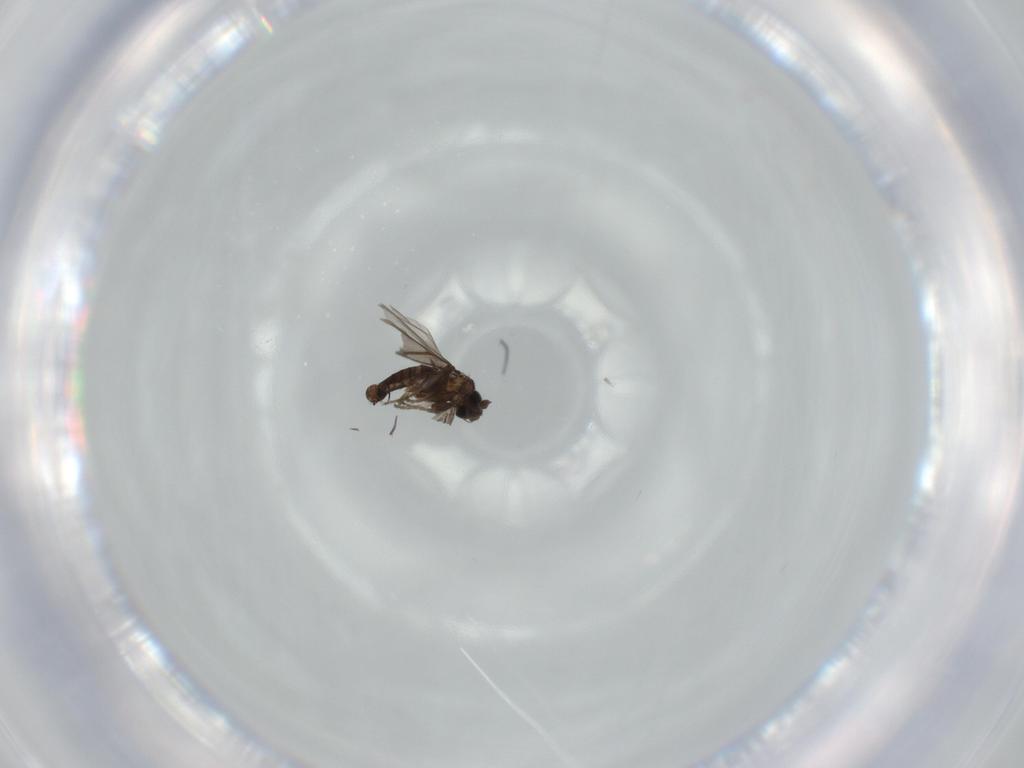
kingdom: Animalia
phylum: Arthropoda
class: Insecta
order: Diptera
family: Phoridae
